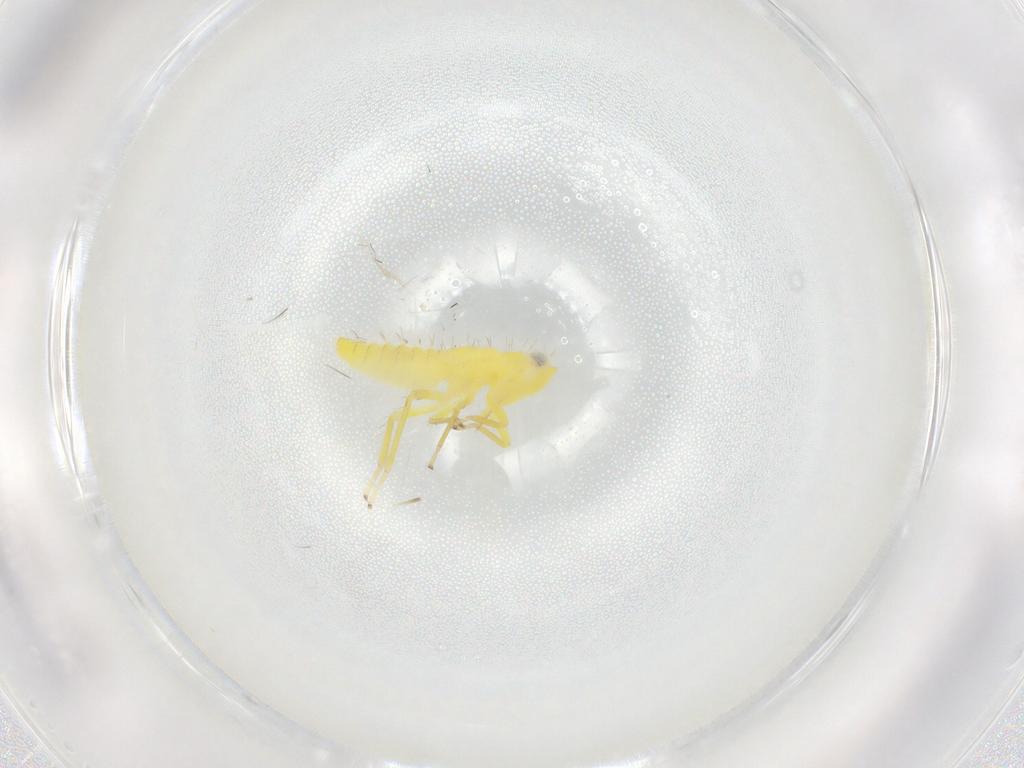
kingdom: Animalia
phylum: Arthropoda
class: Insecta
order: Hemiptera
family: Cicadellidae
